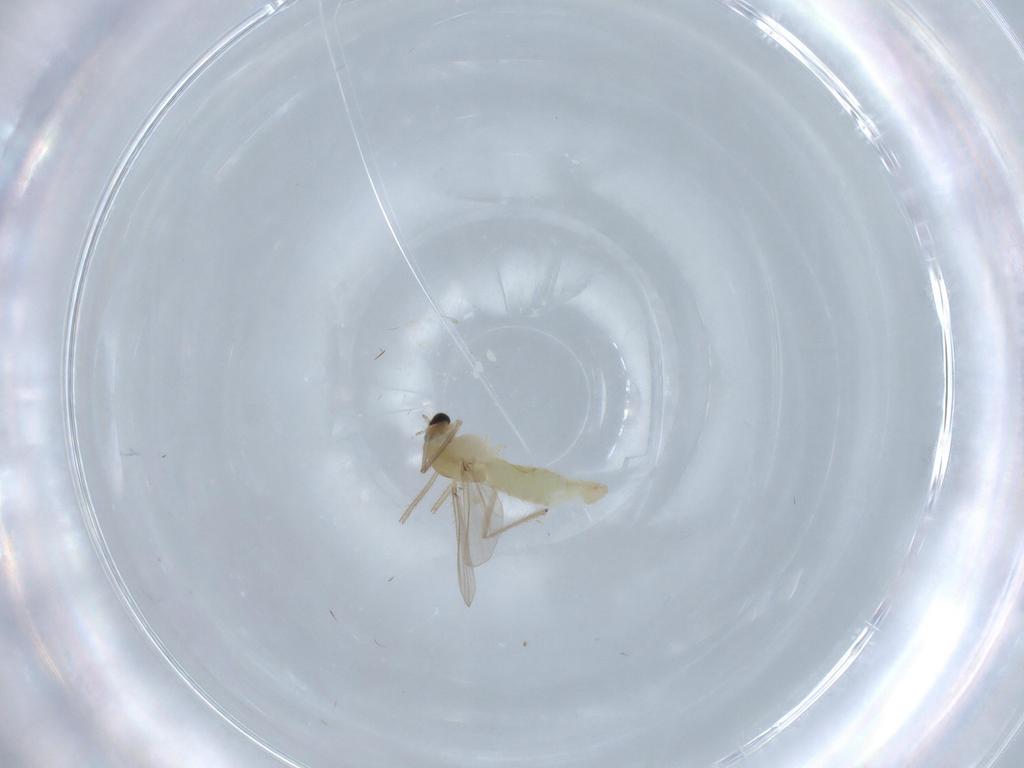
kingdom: Animalia
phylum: Arthropoda
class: Insecta
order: Diptera
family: Chironomidae
